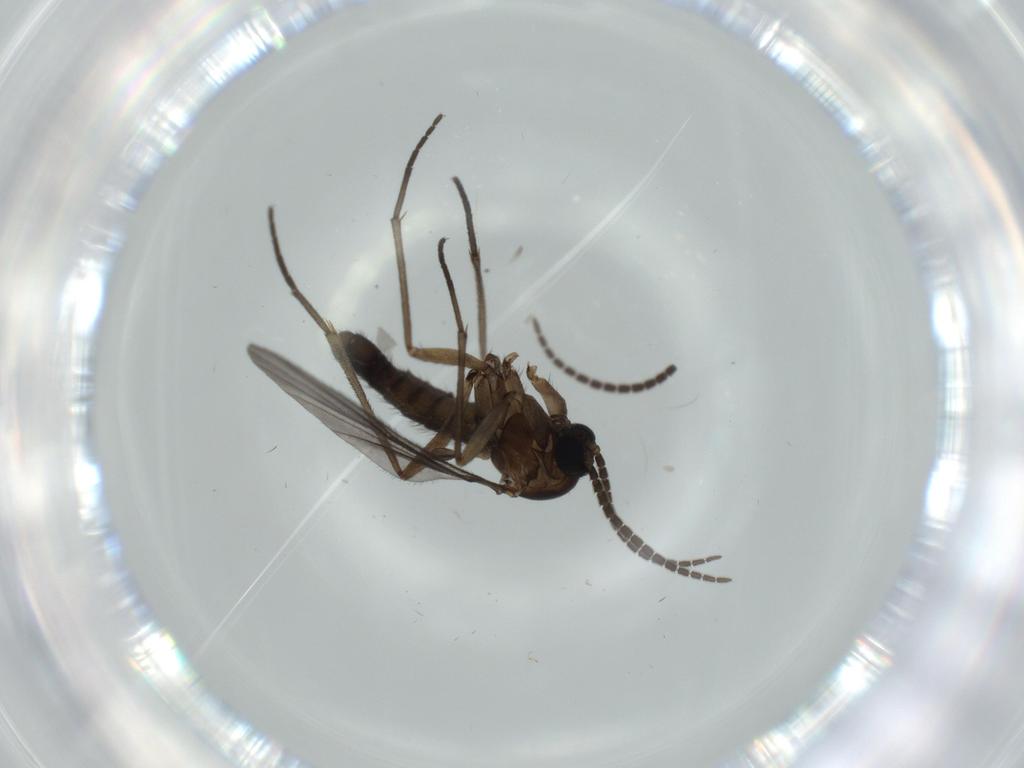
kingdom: Animalia
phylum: Arthropoda
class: Insecta
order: Diptera
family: Sciaridae
